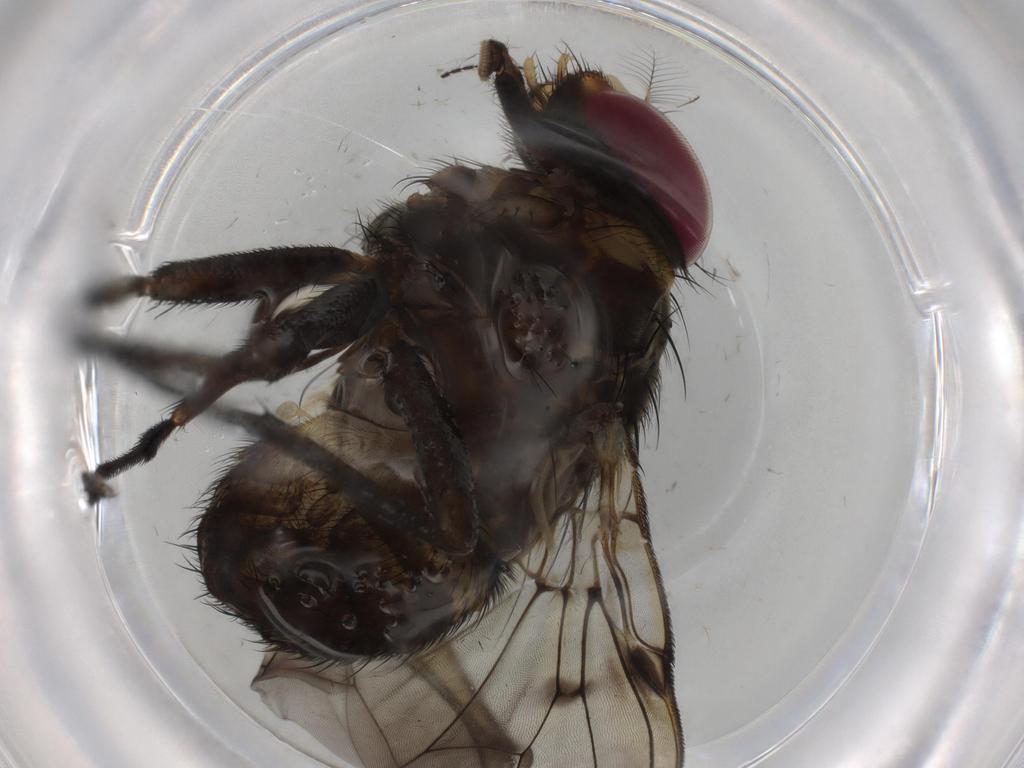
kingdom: Animalia
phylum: Arthropoda
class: Insecta
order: Diptera
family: Muscidae
